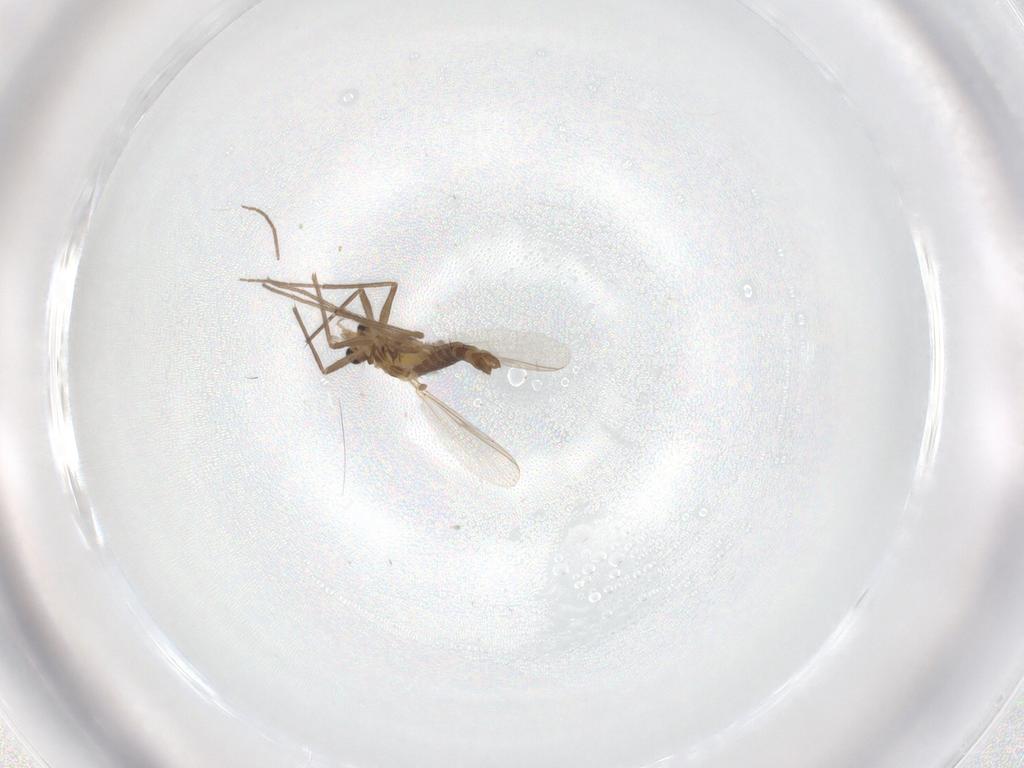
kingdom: Animalia
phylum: Arthropoda
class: Insecta
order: Diptera
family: Chironomidae
